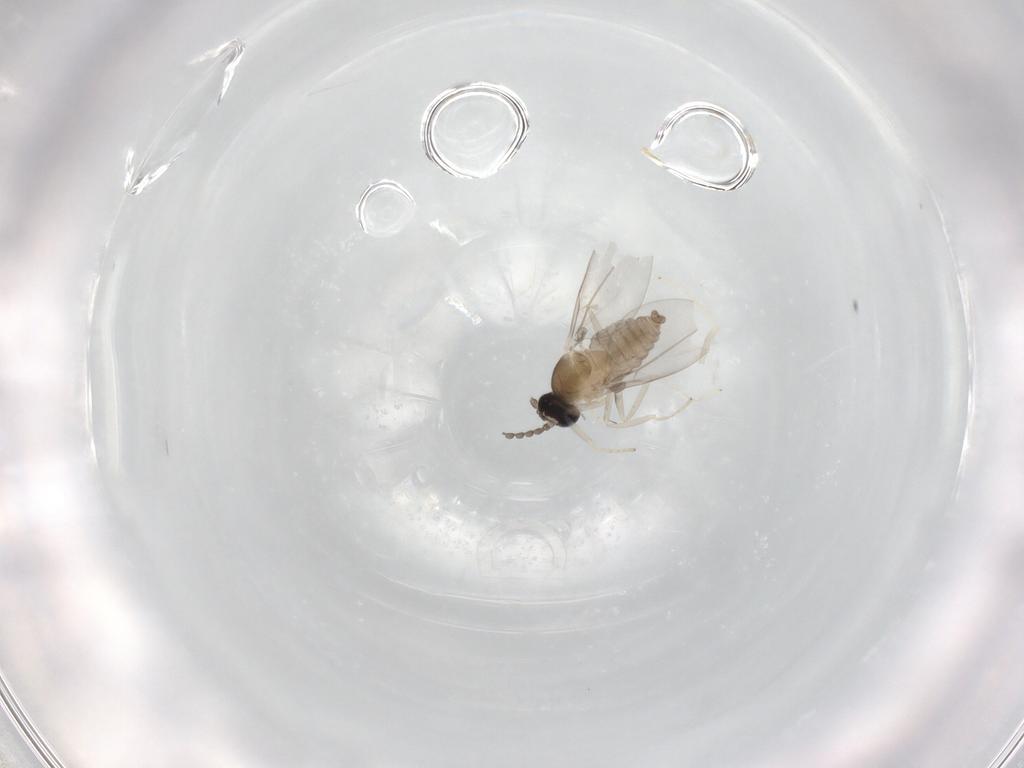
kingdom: Animalia
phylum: Arthropoda
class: Insecta
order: Diptera
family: Cecidomyiidae
